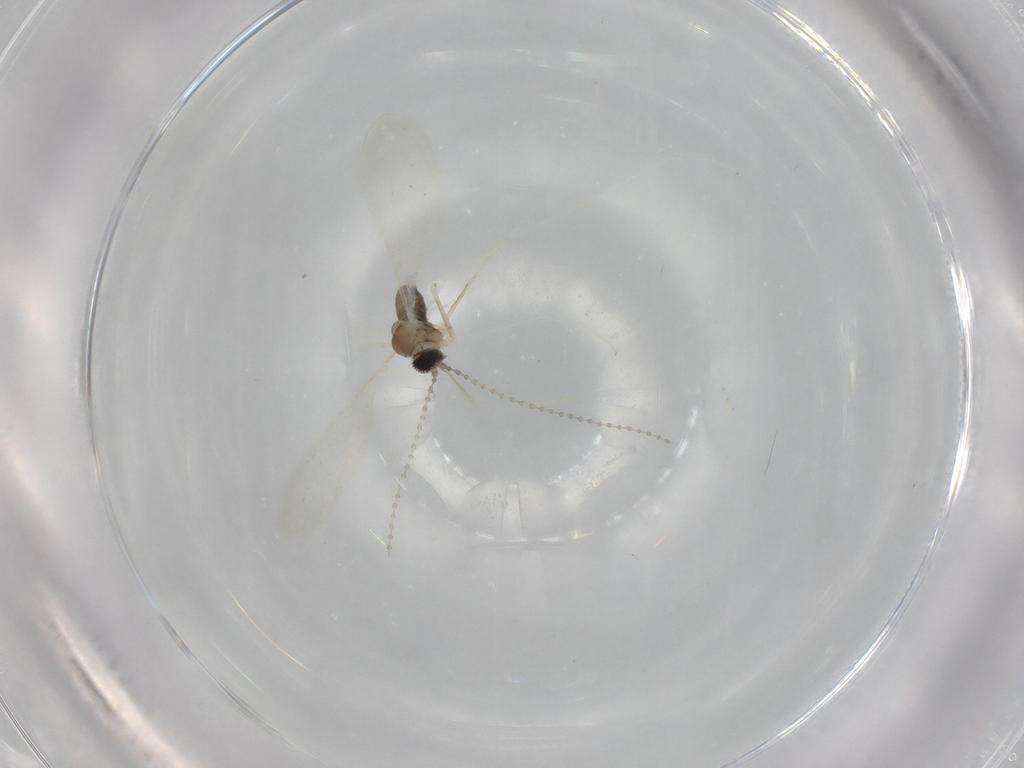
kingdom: Animalia
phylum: Arthropoda
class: Insecta
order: Diptera
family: Cecidomyiidae
